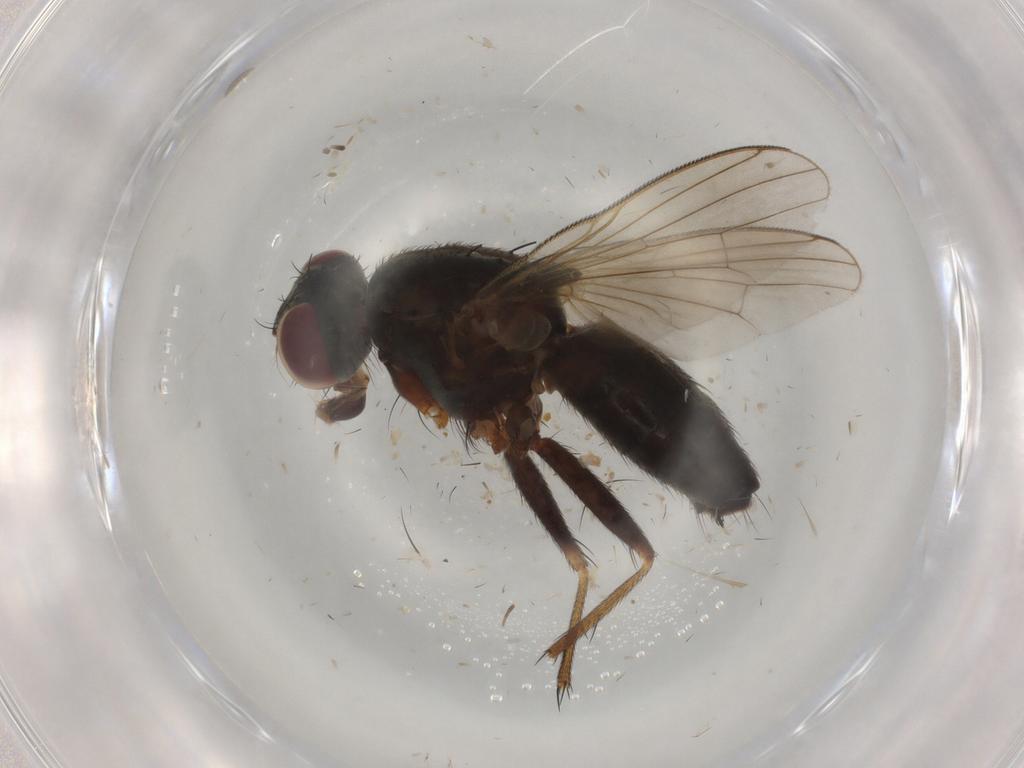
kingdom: Animalia
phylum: Arthropoda
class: Insecta
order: Diptera
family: Muscidae
